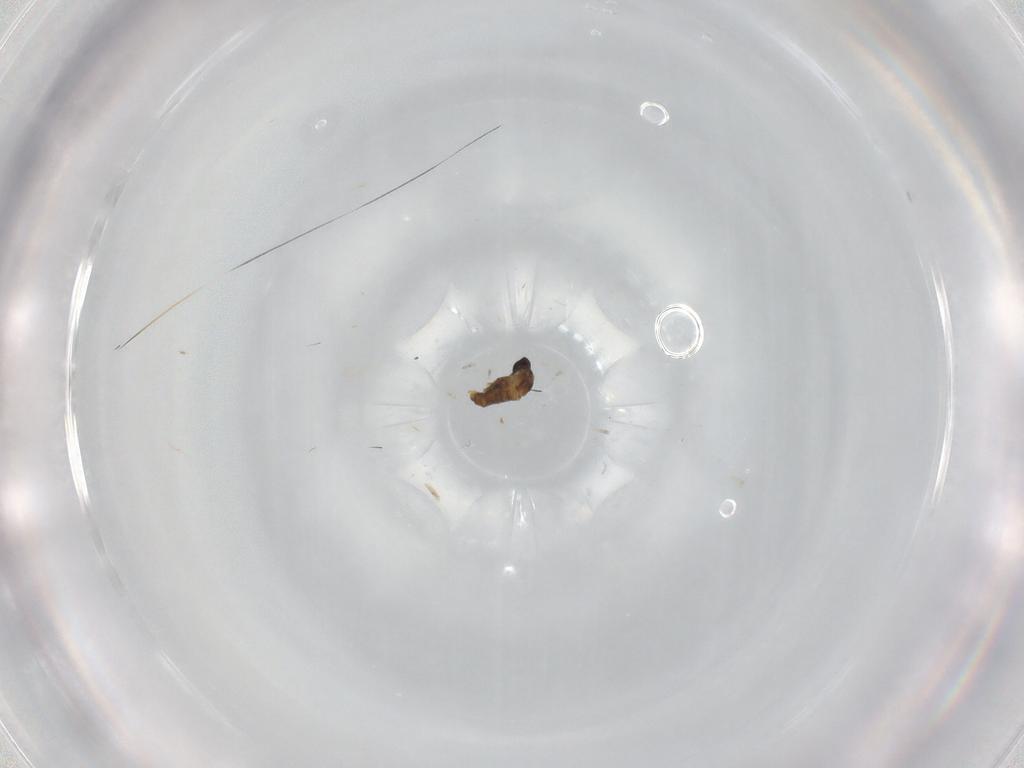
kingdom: Animalia
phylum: Arthropoda
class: Insecta
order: Diptera
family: Cecidomyiidae
